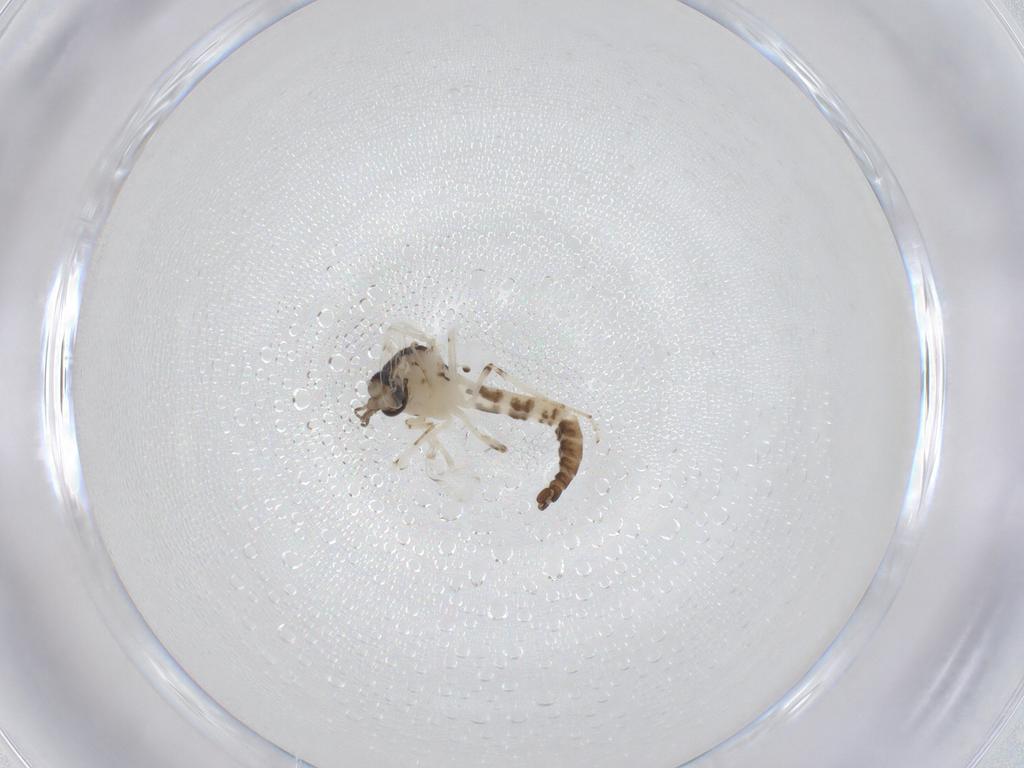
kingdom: Animalia
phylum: Arthropoda
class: Insecta
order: Diptera
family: Ceratopogonidae
